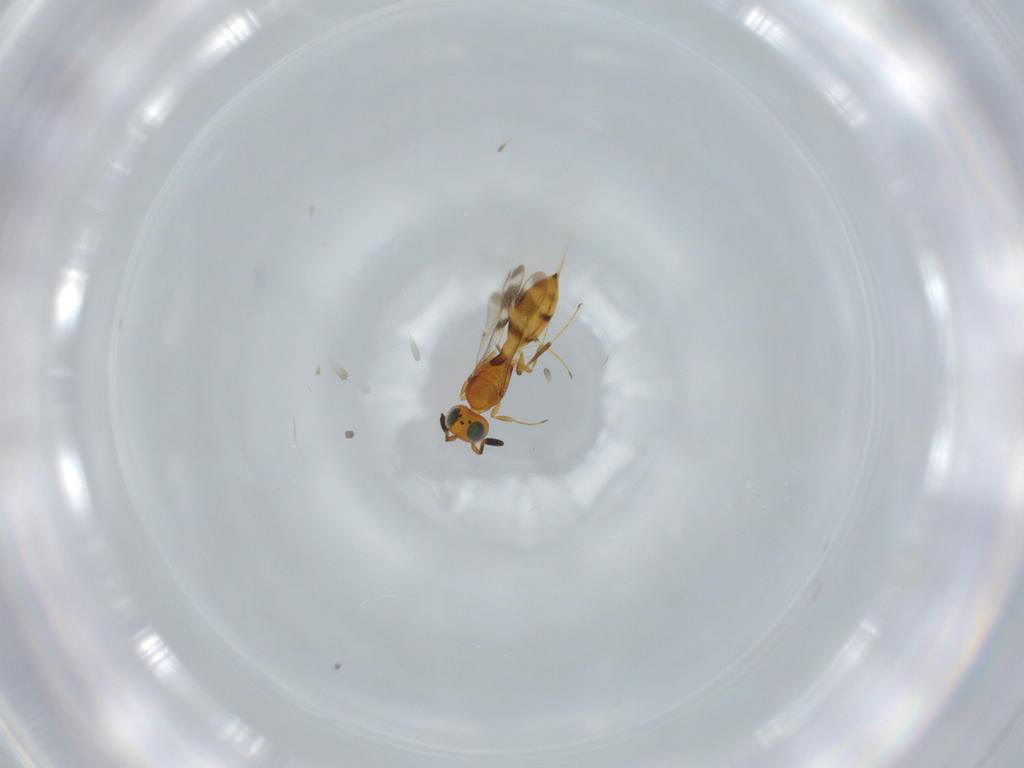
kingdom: Animalia
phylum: Arthropoda
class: Insecta
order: Hymenoptera
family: Scelionidae
